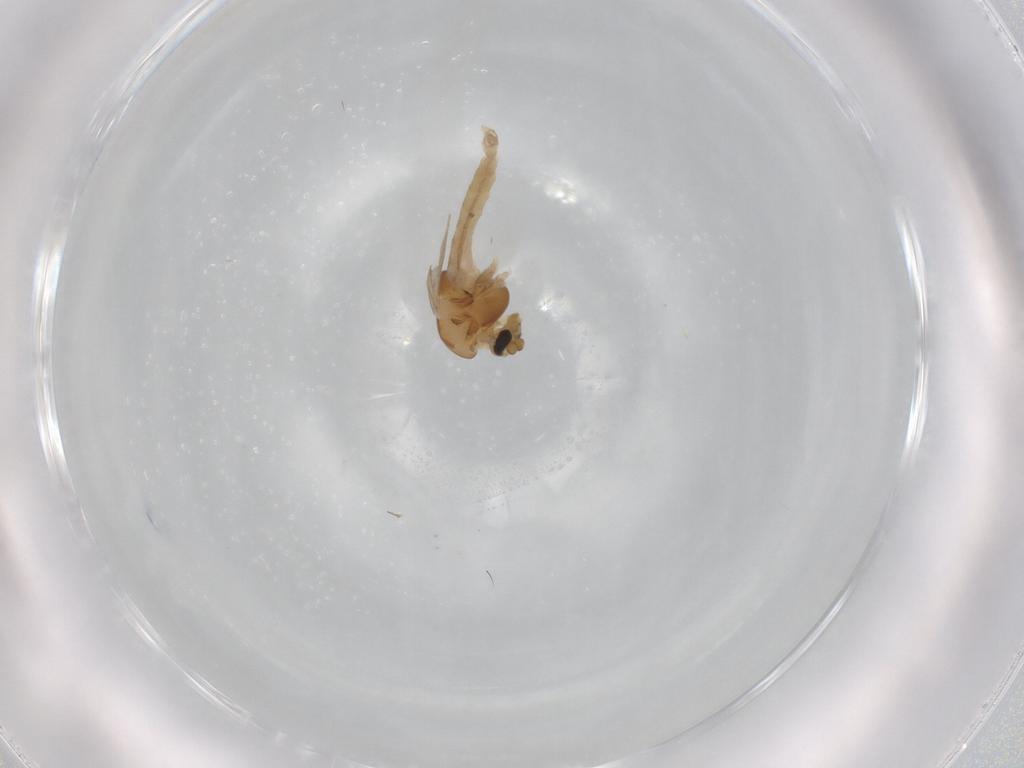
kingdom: Animalia
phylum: Arthropoda
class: Insecta
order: Diptera
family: Chironomidae
